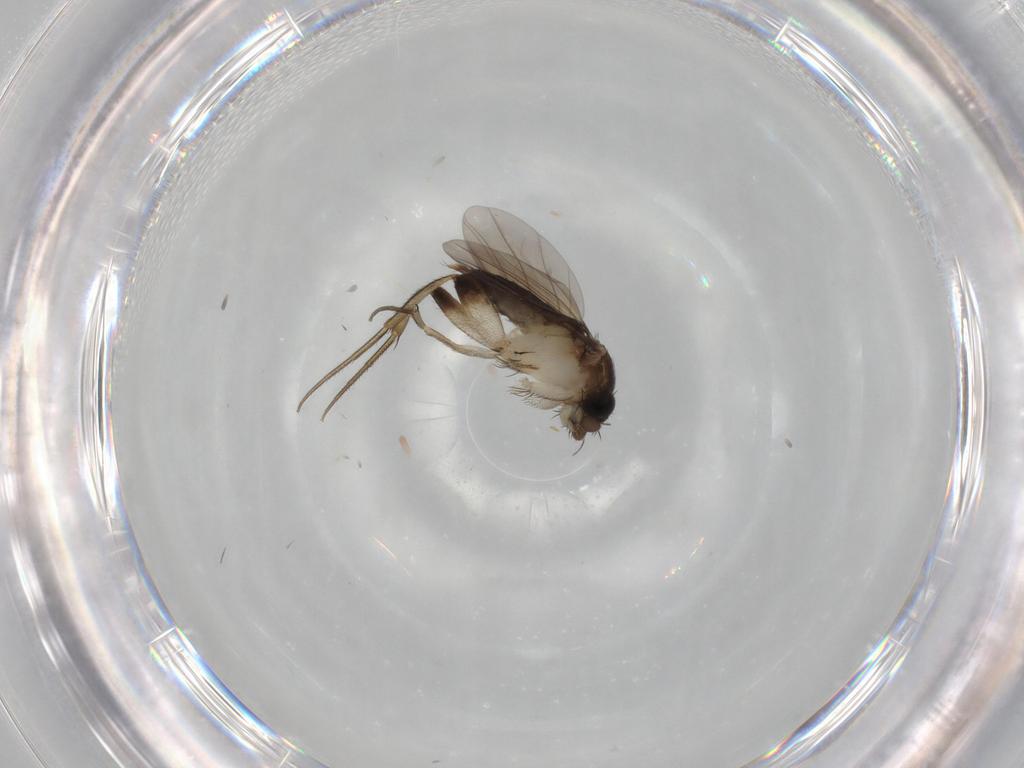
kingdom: Animalia
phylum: Arthropoda
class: Insecta
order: Diptera
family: Phoridae
